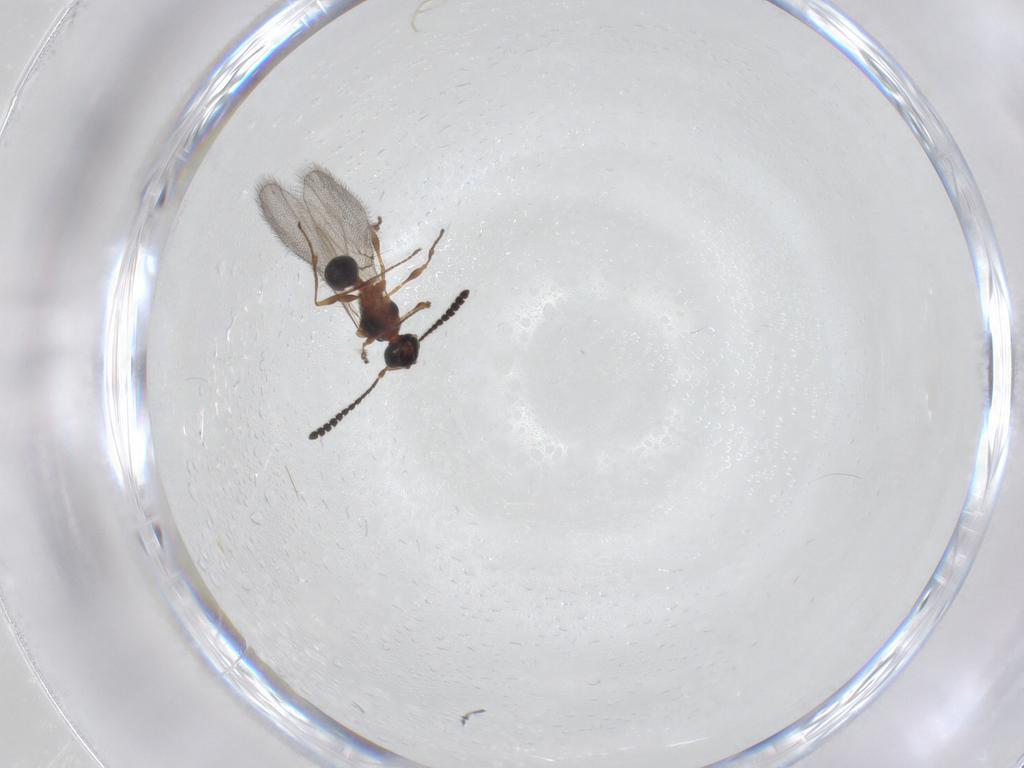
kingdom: Animalia
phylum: Arthropoda
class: Insecta
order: Hymenoptera
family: Diapriidae
